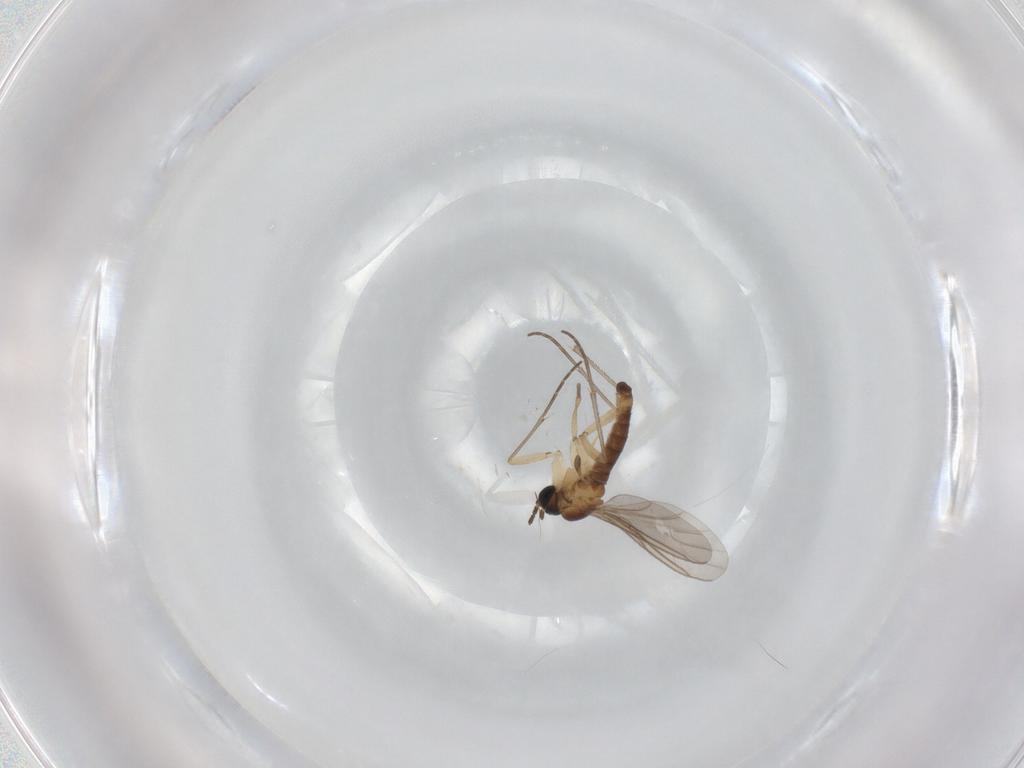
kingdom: Animalia
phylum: Arthropoda
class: Insecta
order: Diptera
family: Sciaridae
